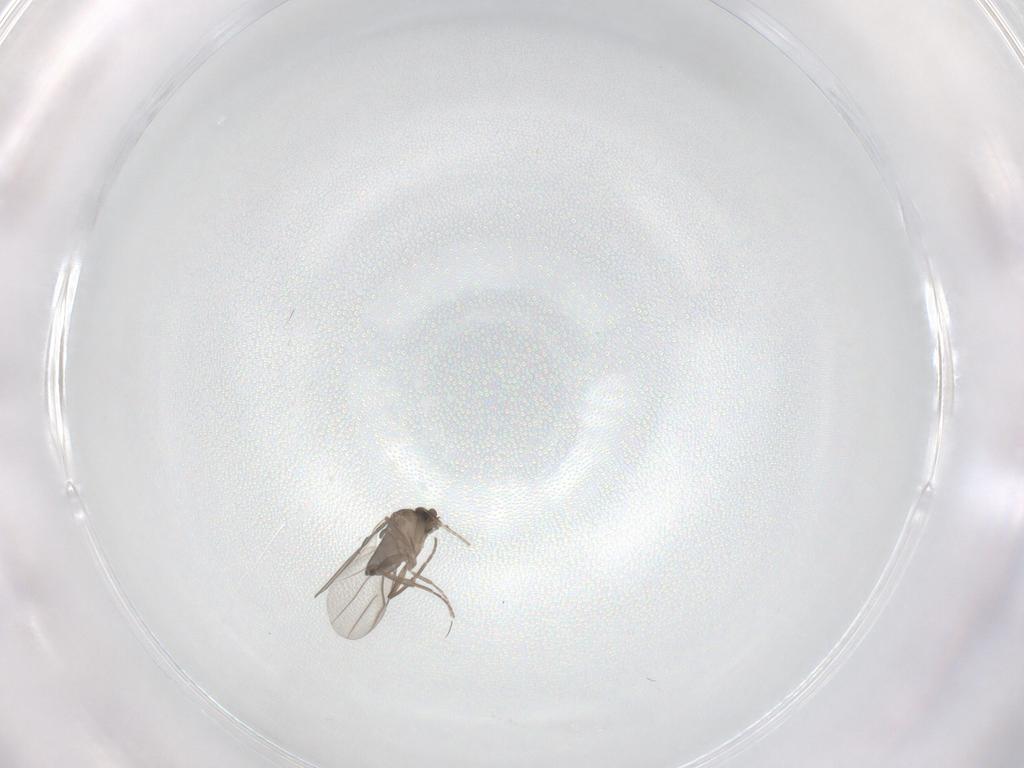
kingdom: Animalia
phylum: Arthropoda
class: Insecta
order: Diptera
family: Phoridae
